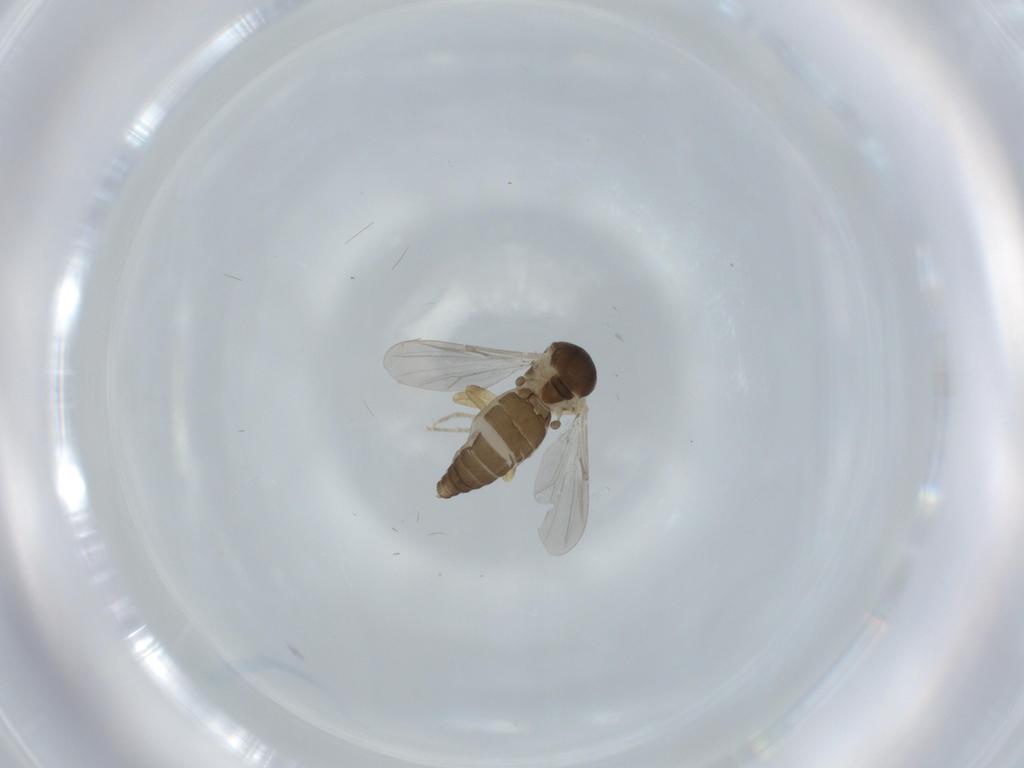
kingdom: Animalia
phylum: Arthropoda
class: Insecta
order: Diptera
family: Ceratopogonidae
